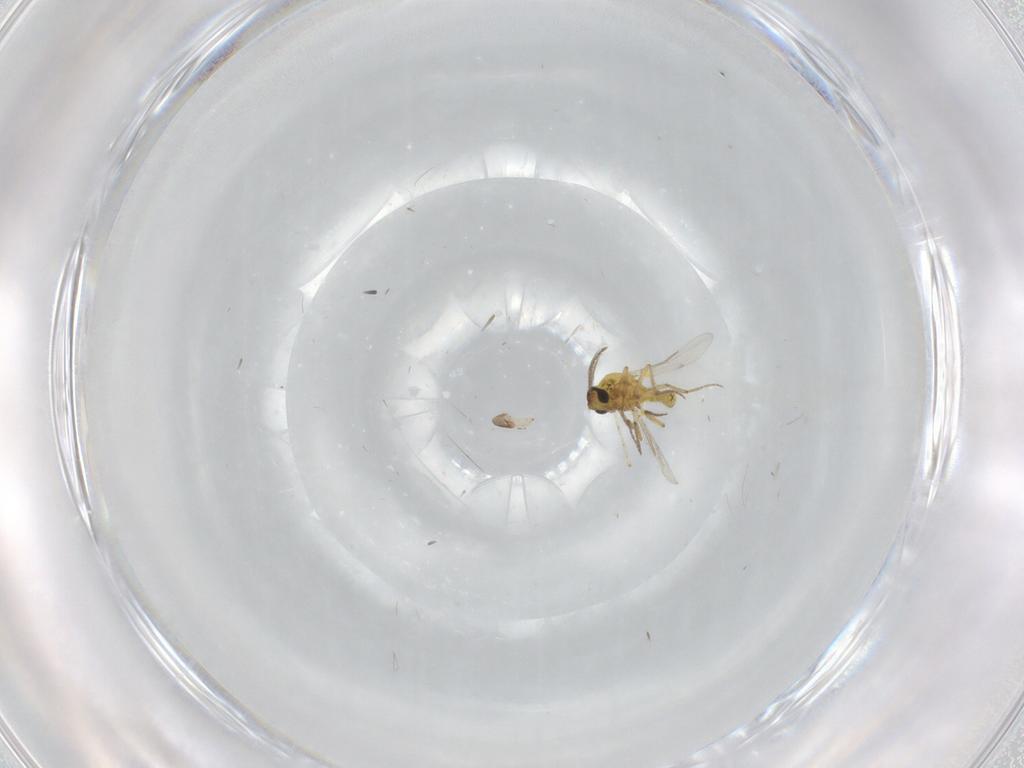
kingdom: Animalia
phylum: Arthropoda
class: Insecta
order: Diptera
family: Ceratopogonidae
